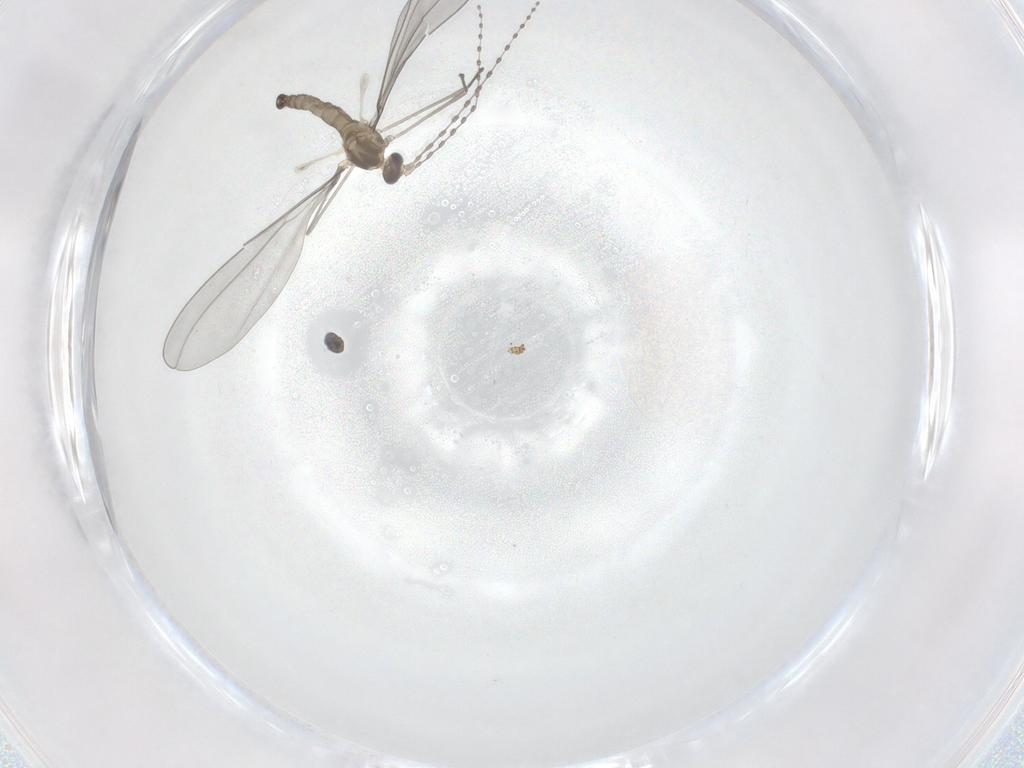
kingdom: Animalia
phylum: Arthropoda
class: Insecta
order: Diptera
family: Cecidomyiidae
